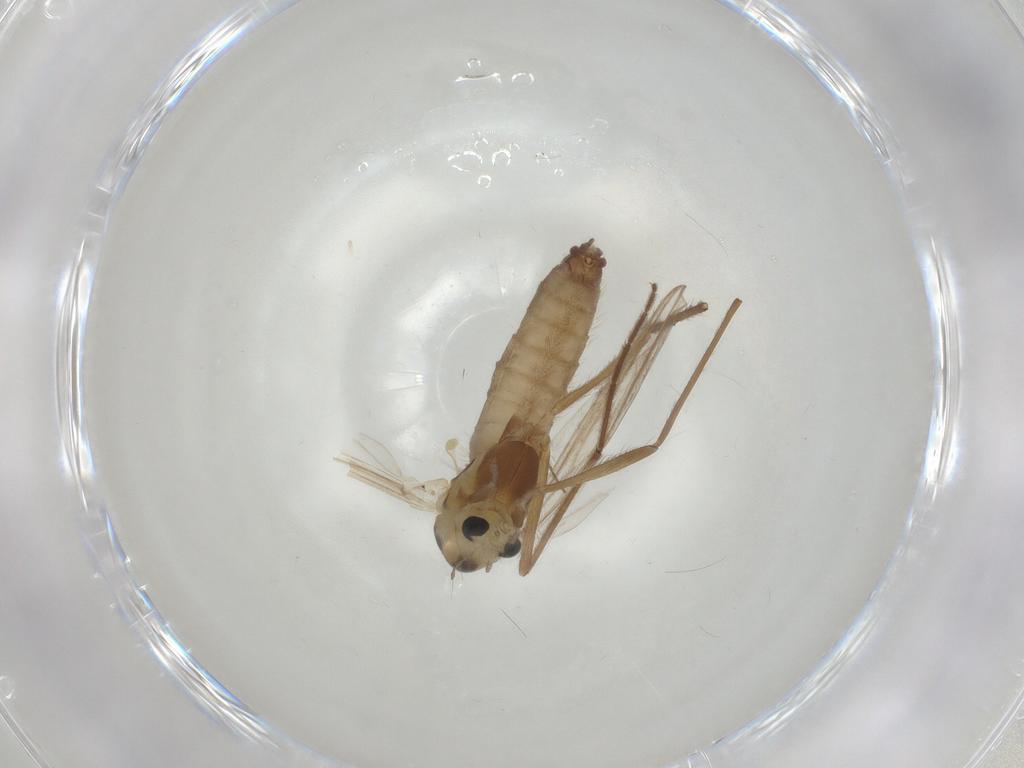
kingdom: Animalia
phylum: Arthropoda
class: Insecta
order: Diptera
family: Chironomidae
